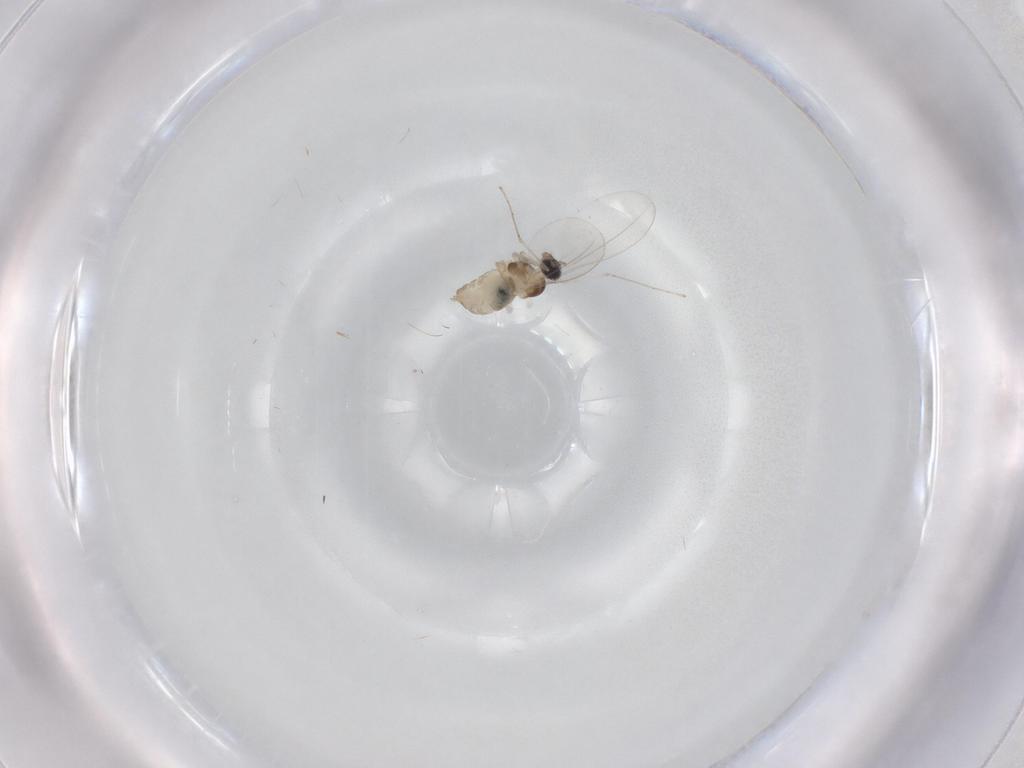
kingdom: Animalia
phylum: Arthropoda
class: Insecta
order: Diptera
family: Cecidomyiidae
